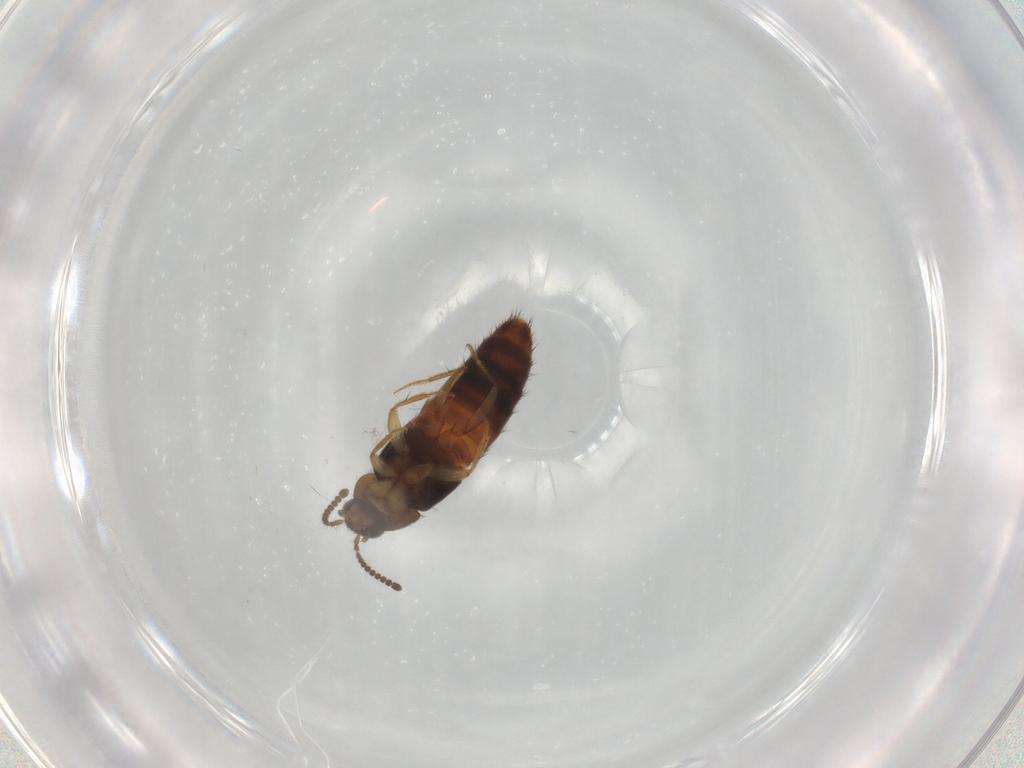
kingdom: Animalia
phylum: Arthropoda
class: Insecta
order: Coleoptera
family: Staphylinidae
